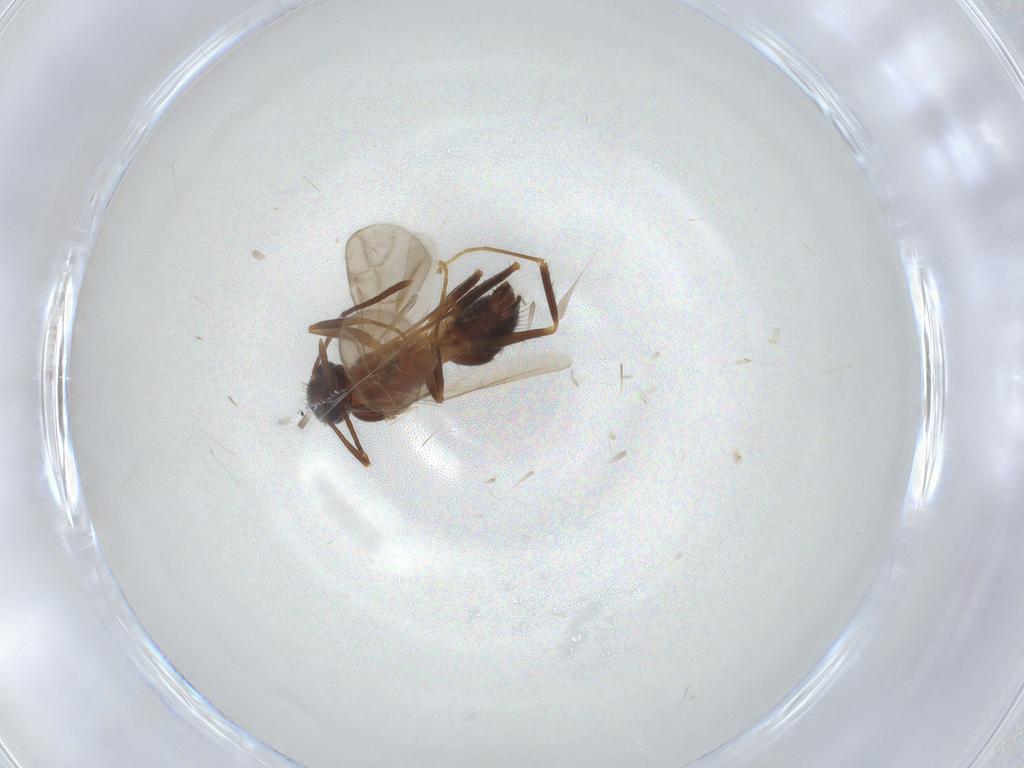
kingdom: Animalia
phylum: Arthropoda
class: Insecta
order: Hymenoptera
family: Formicidae
